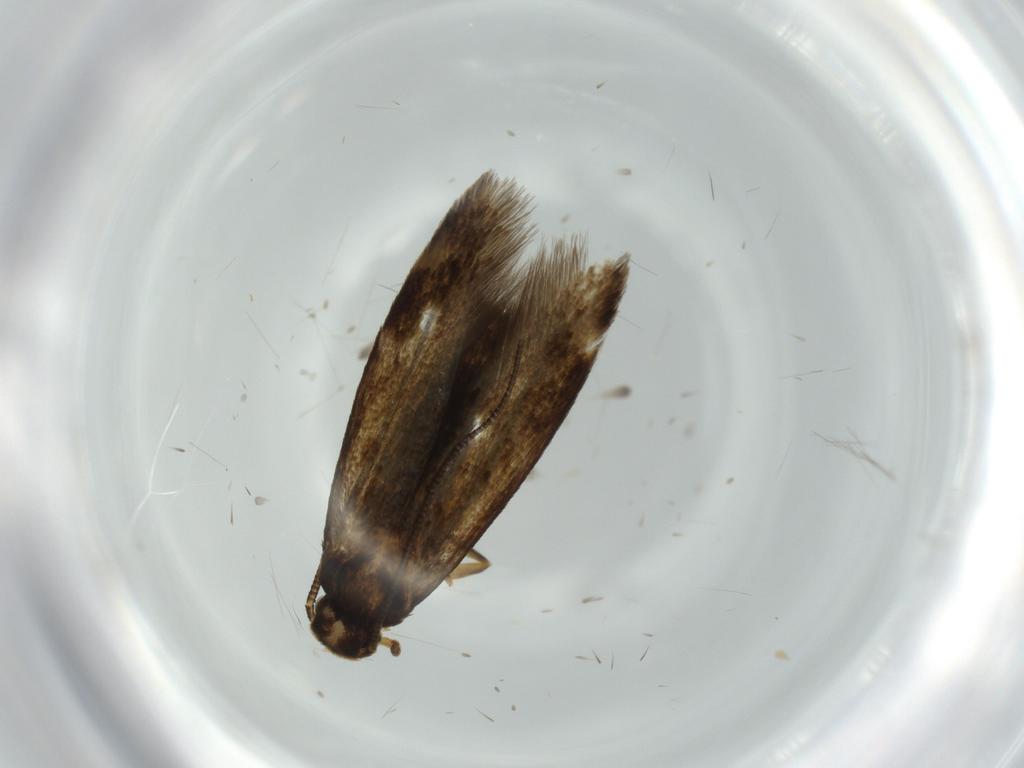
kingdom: Animalia
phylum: Arthropoda
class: Insecta
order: Lepidoptera
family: Tineidae
